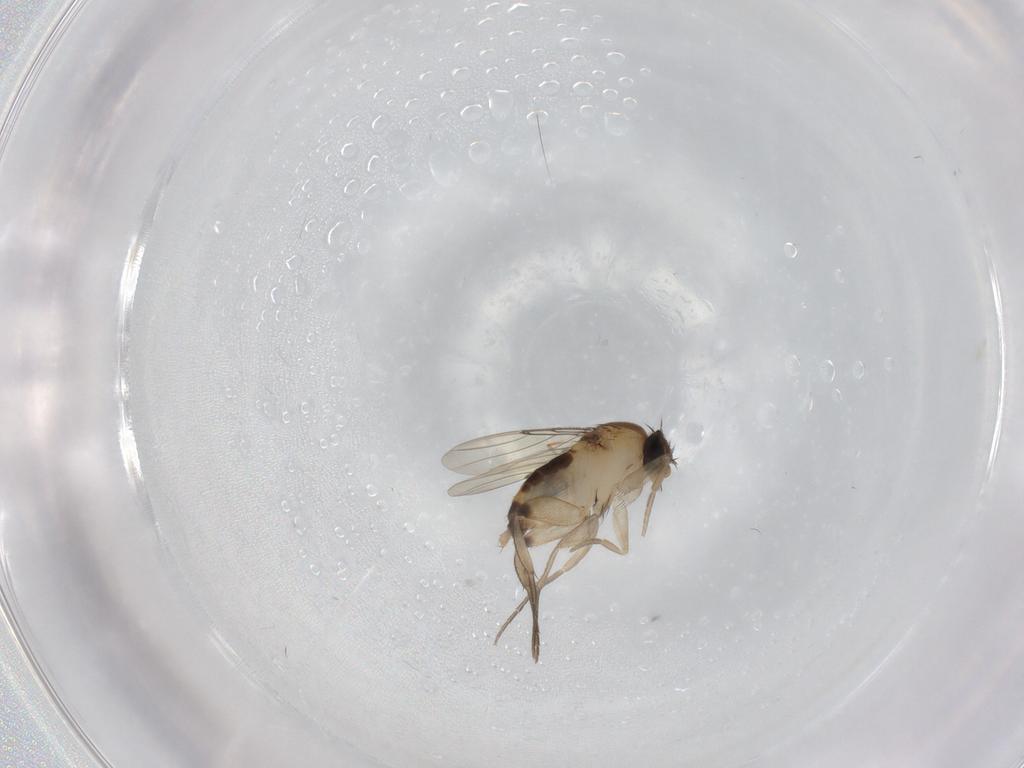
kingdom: Animalia
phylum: Arthropoda
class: Insecta
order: Diptera
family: Phoridae
